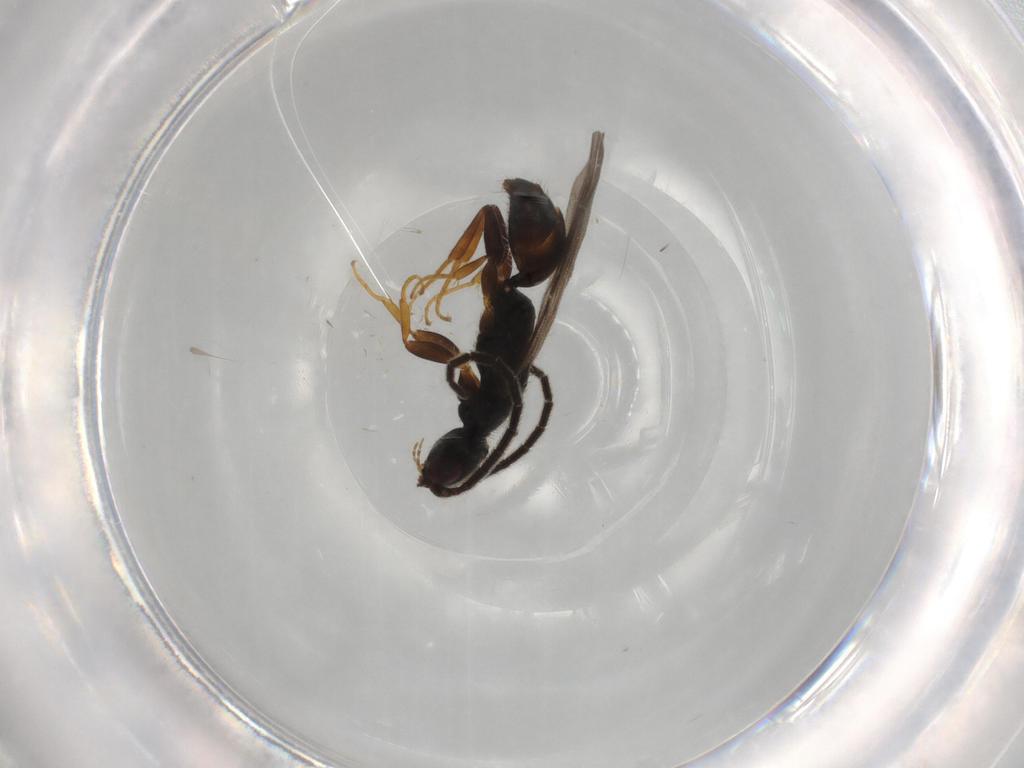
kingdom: Animalia
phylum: Arthropoda
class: Insecta
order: Hymenoptera
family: Bethylidae
